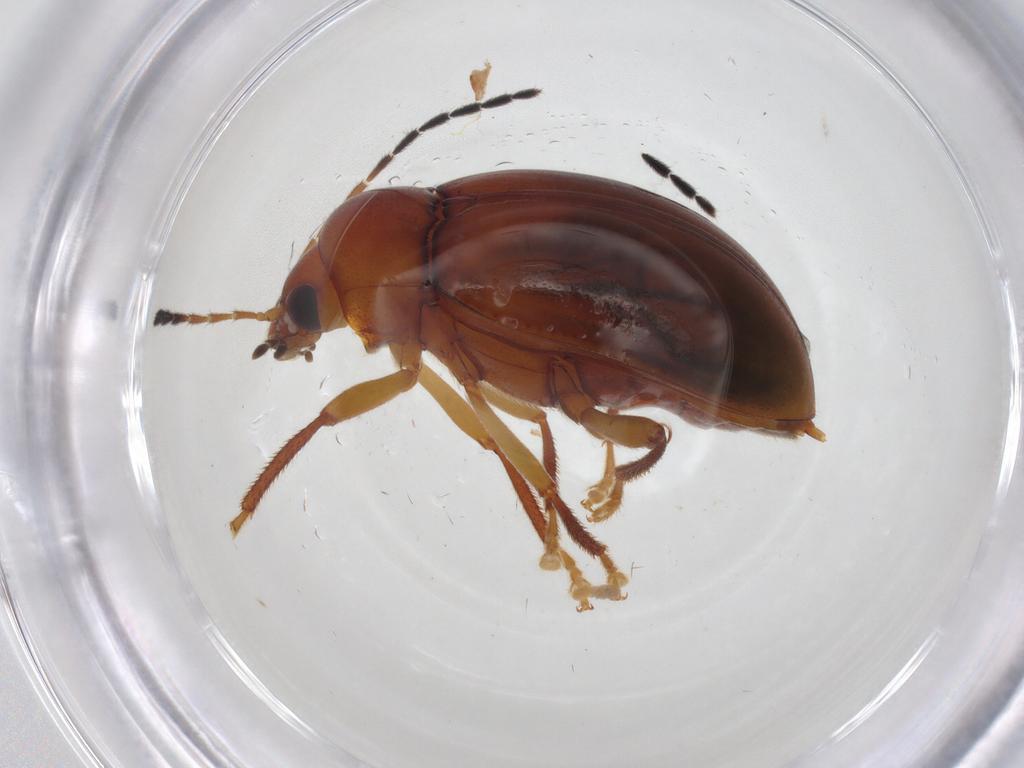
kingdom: Animalia
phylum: Arthropoda
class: Insecta
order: Coleoptera
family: Ptilodactylidae
